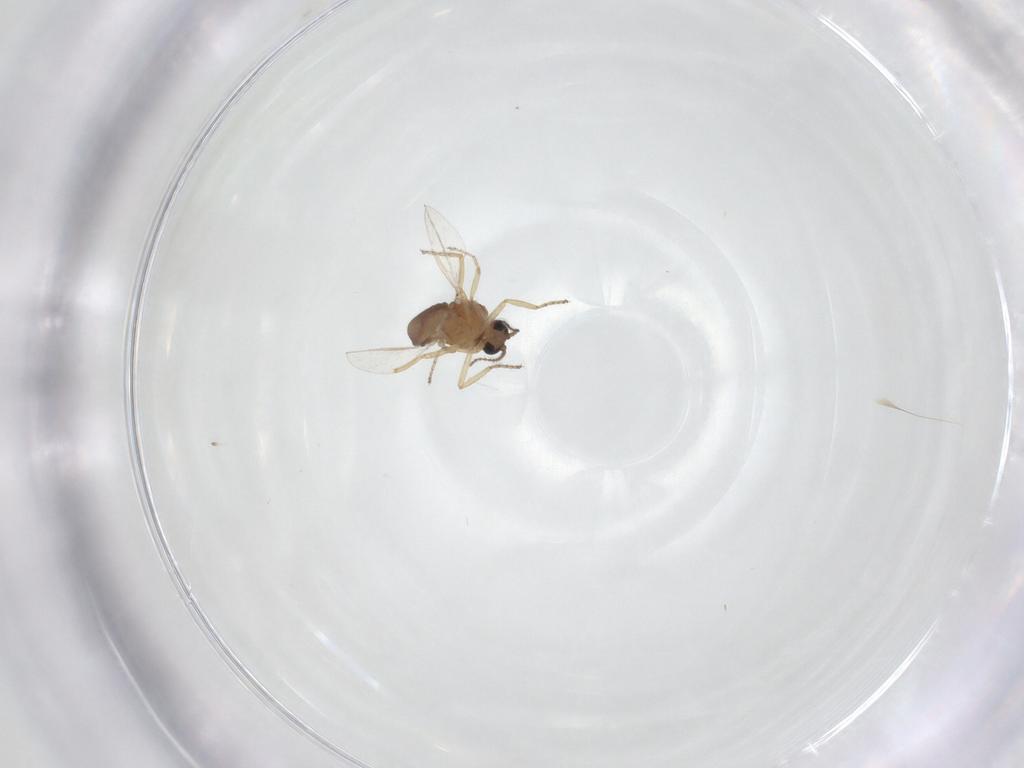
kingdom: Animalia
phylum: Arthropoda
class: Insecta
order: Diptera
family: Ceratopogonidae
